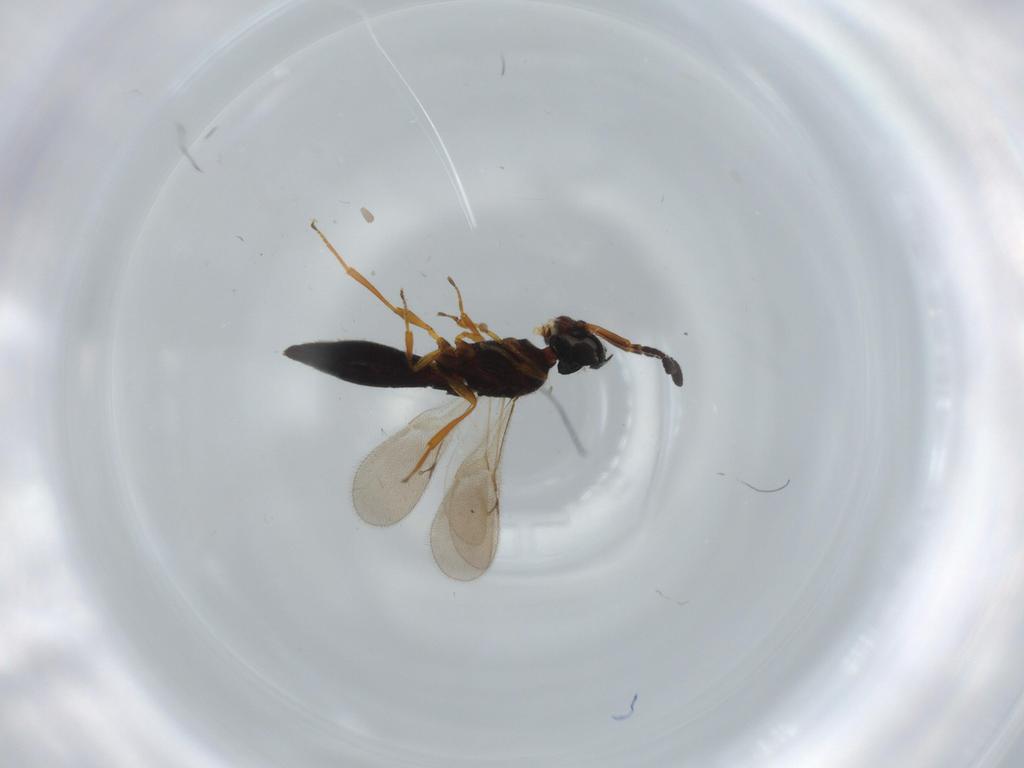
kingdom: Animalia
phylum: Arthropoda
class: Insecta
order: Hymenoptera
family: Scelionidae
